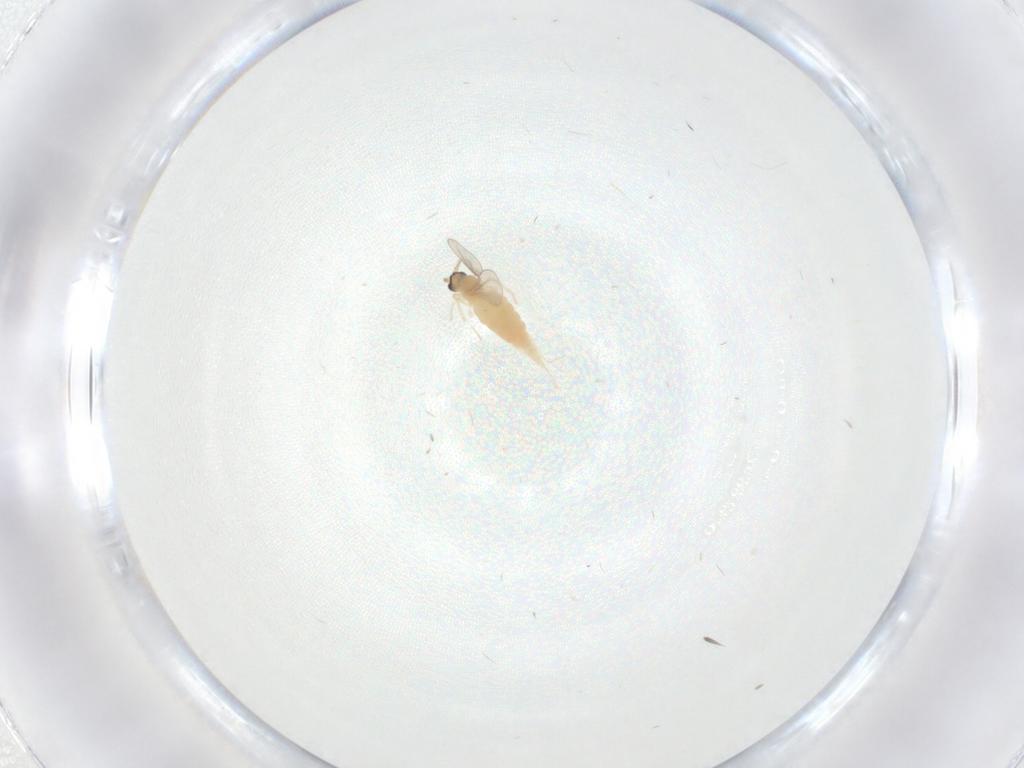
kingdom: Animalia
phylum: Arthropoda
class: Insecta
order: Diptera
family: Cecidomyiidae
